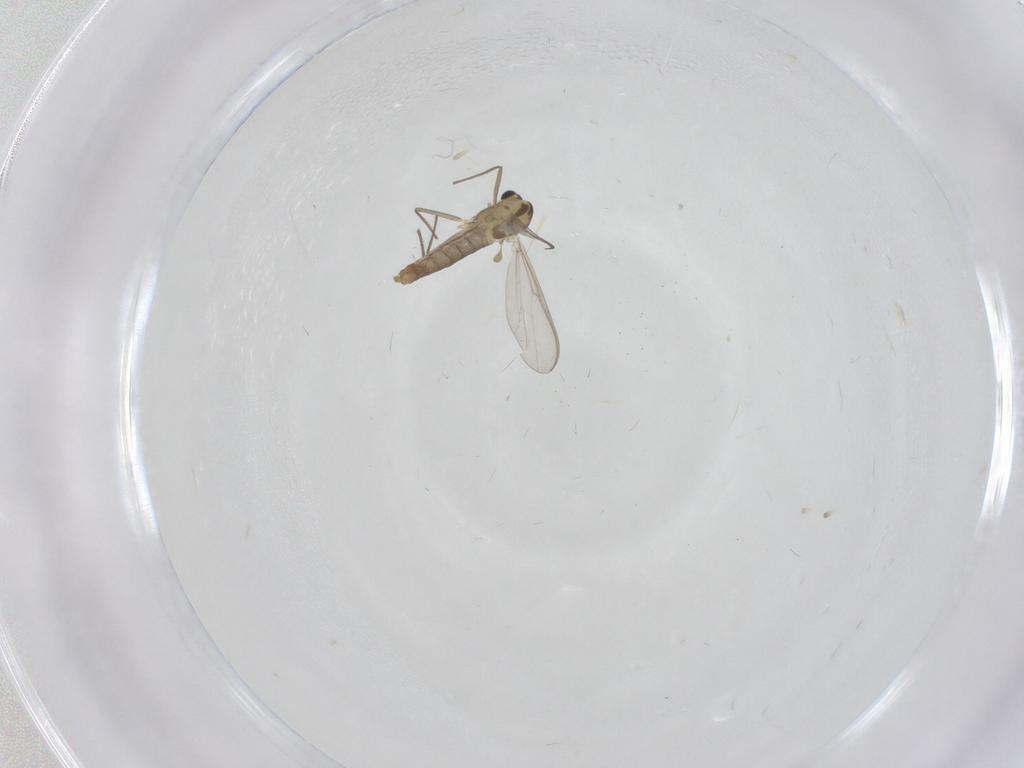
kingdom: Animalia
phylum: Arthropoda
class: Insecta
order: Diptera
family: Chironomidae
